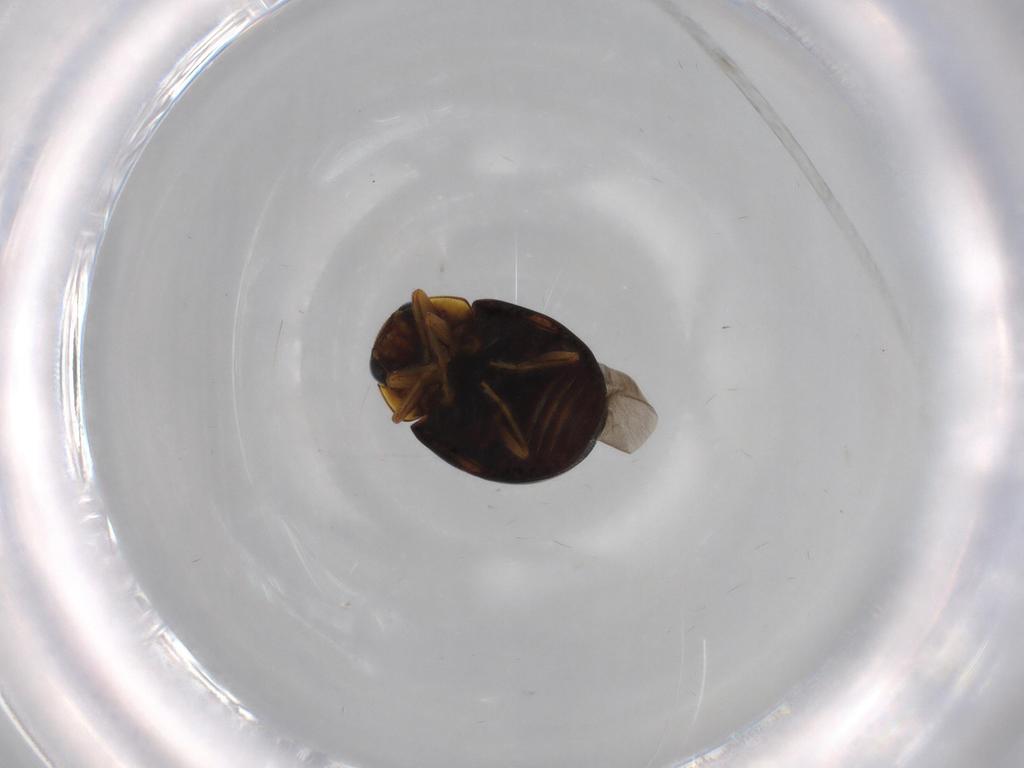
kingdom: Animalia
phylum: Arthropoda
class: Insecta
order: Coleoptera
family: Coccinellidae
